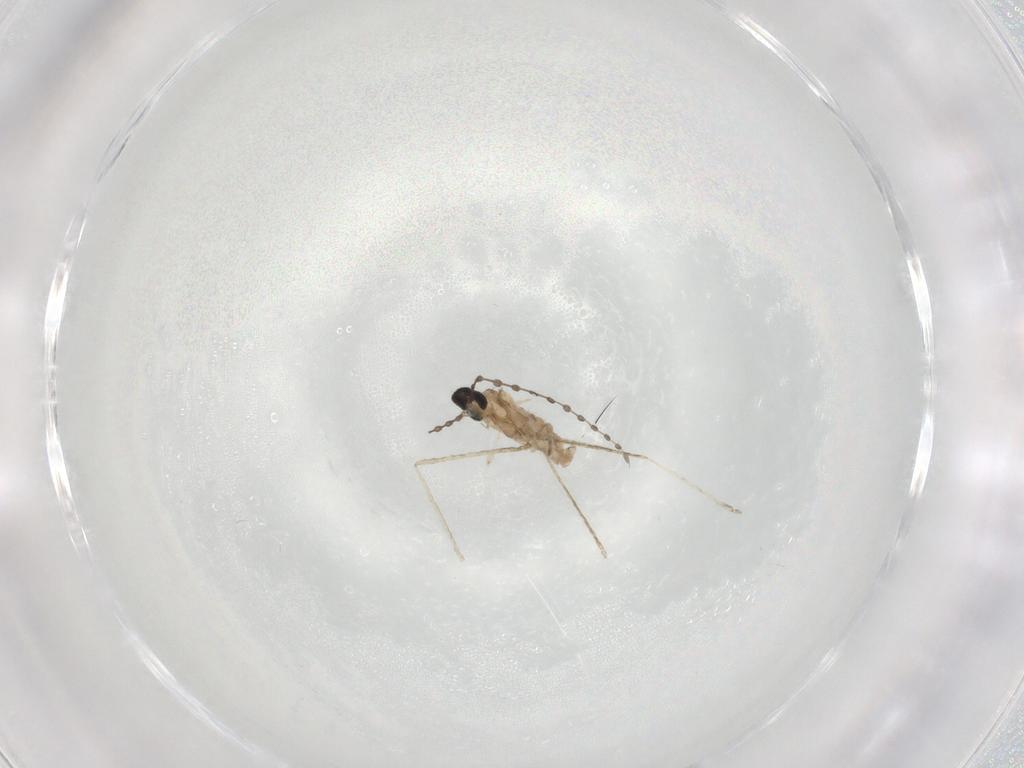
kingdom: Animalia
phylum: Arthropoda
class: Insecta
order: Diptera
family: Cecidomyiidae
